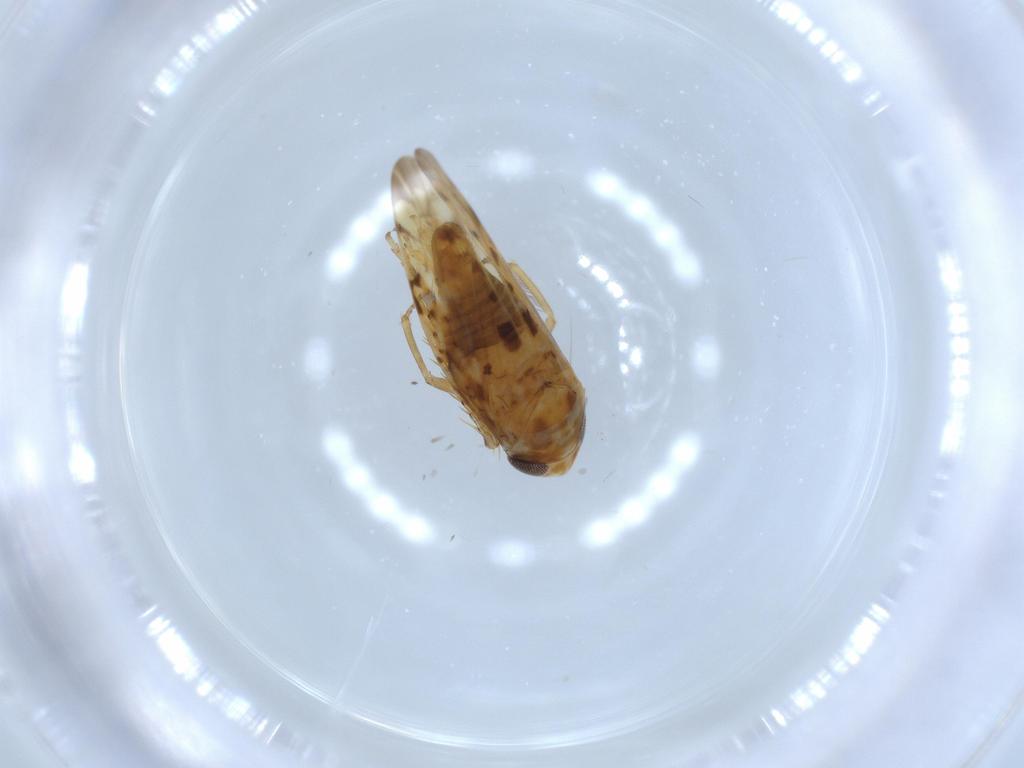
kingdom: Animalia
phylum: Arthropoda
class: Insecta
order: Hemiptera
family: Cicadellidae
